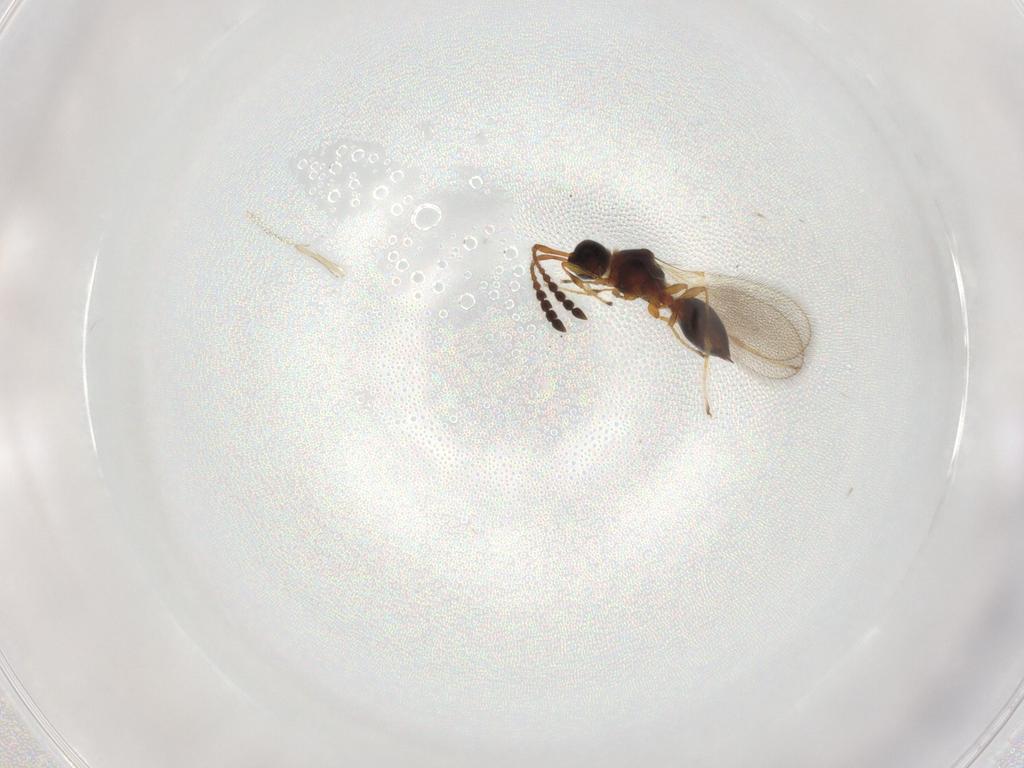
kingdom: Animalia
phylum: Arthropoda
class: Insecta
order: Hymenoptera
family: Diapriidae
